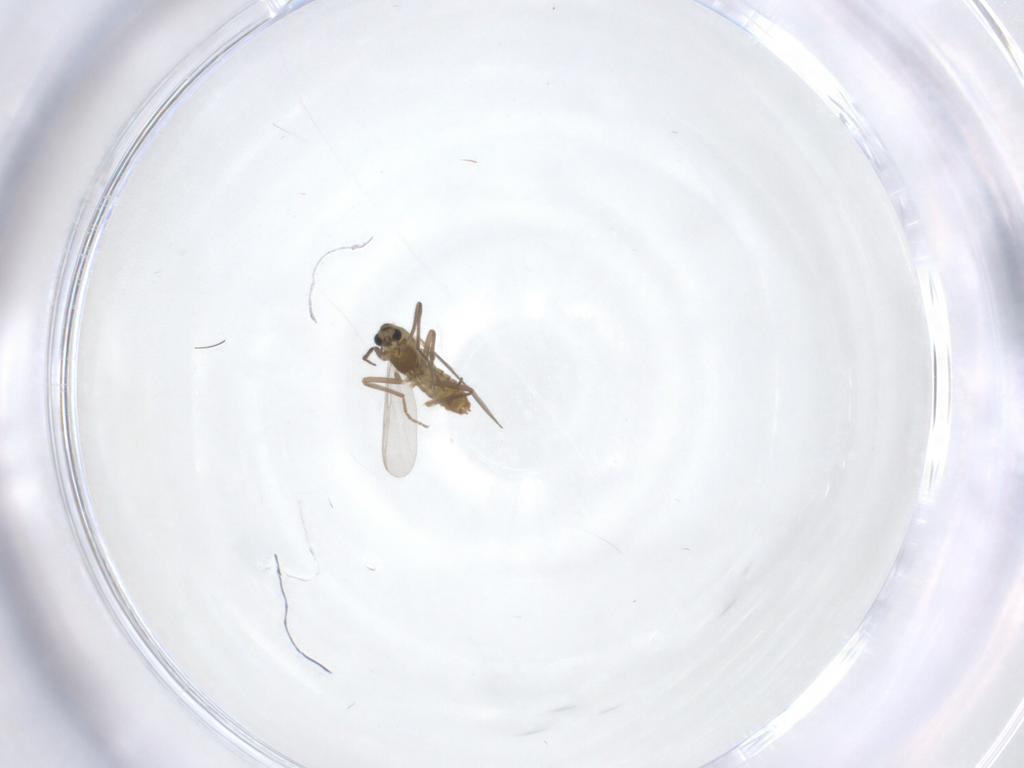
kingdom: Animalia
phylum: Arthropoda
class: Insecta
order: Diptera
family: Chironomidae
